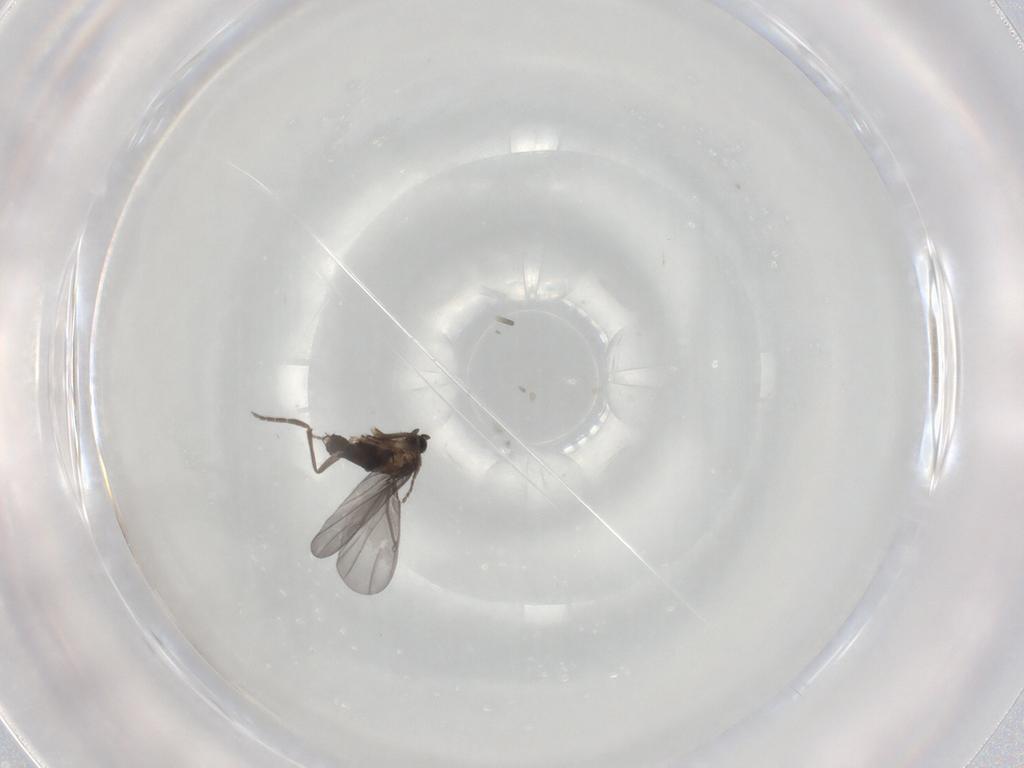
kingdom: Animalia
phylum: Arthropoda
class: Insecta
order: Diptera
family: Phoridae
